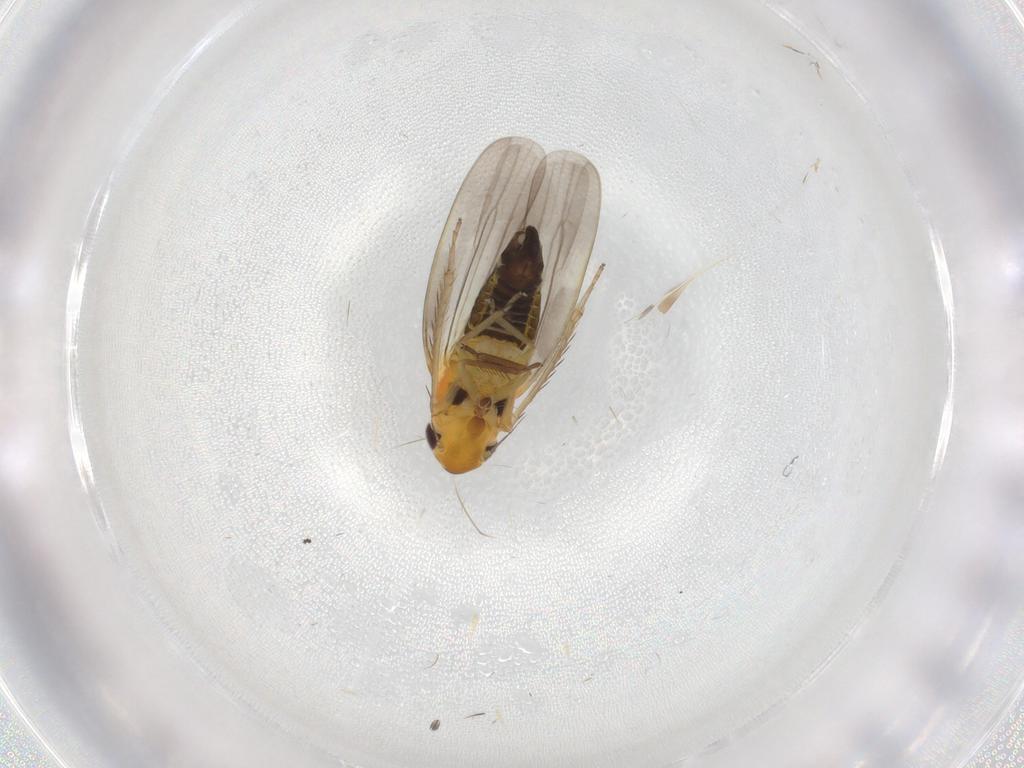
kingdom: Animalia
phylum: Arthropoda
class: Insecta
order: Hemiptera
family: Cicadellidae
